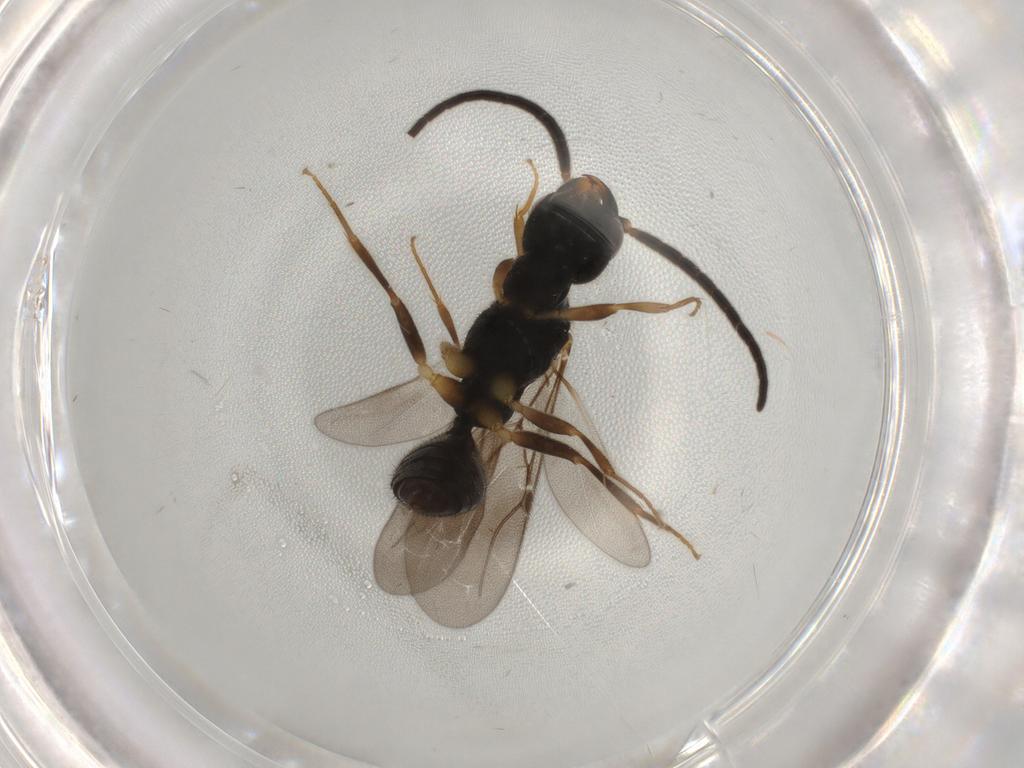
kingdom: Animalia
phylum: Arthropoda
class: Insecta
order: Hymenoptera
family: Bethylidae
